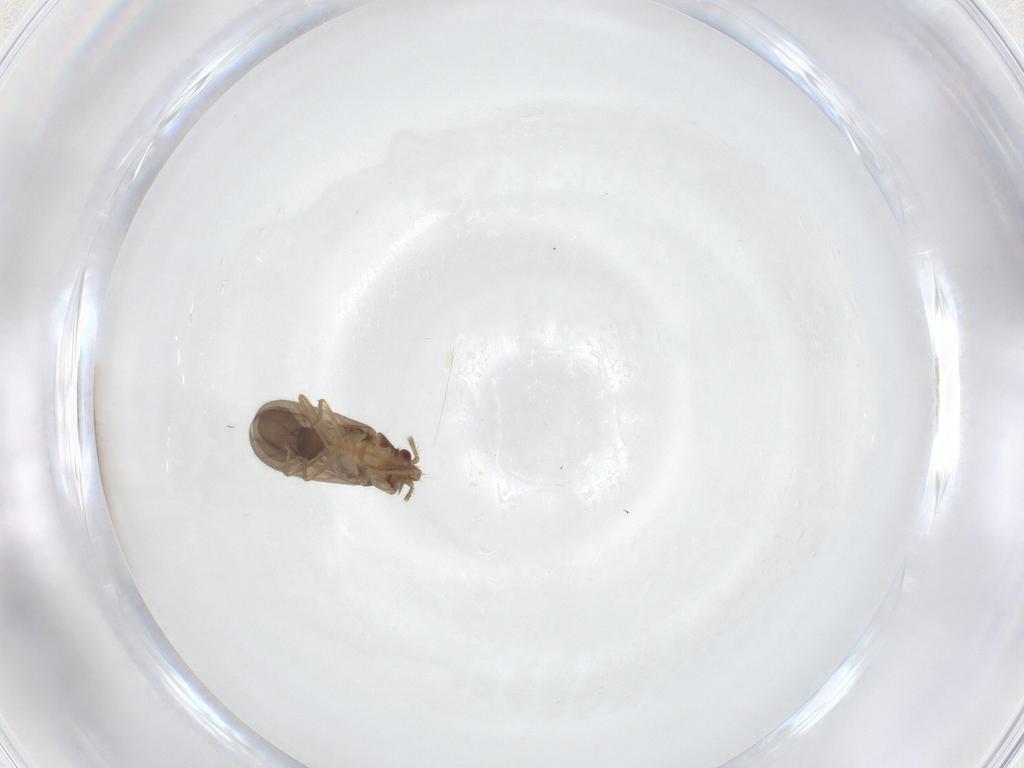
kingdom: Animalia
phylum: Arthropoda
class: Insecta
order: Hemiptera
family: Ceratocombidae
